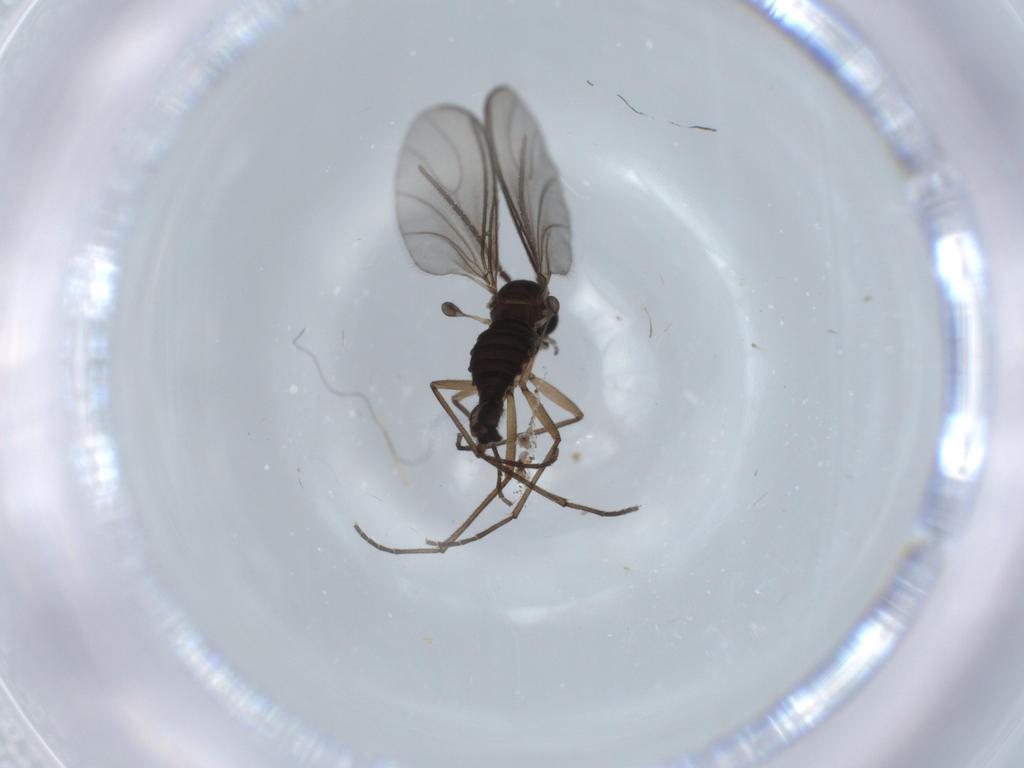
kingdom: Animalia
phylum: Arthropoda
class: Insecta
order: Diptera
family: Sciaridae
